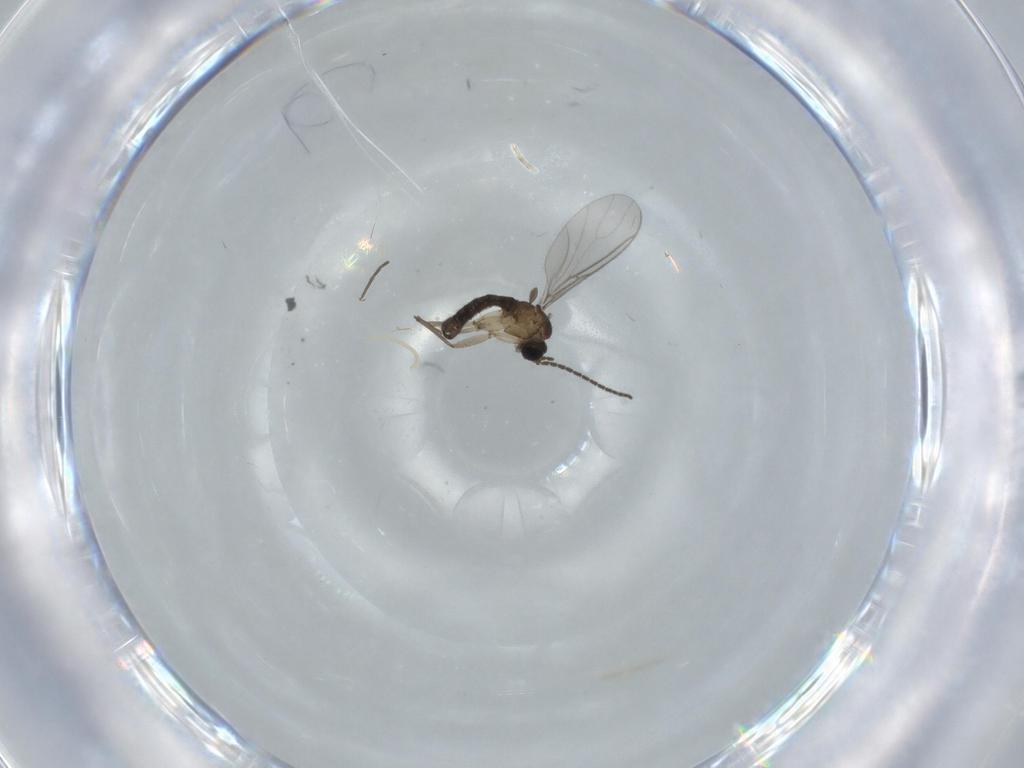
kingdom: Animalia
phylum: Arthropoda
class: Insecta
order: Diptera
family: Sciaridae
